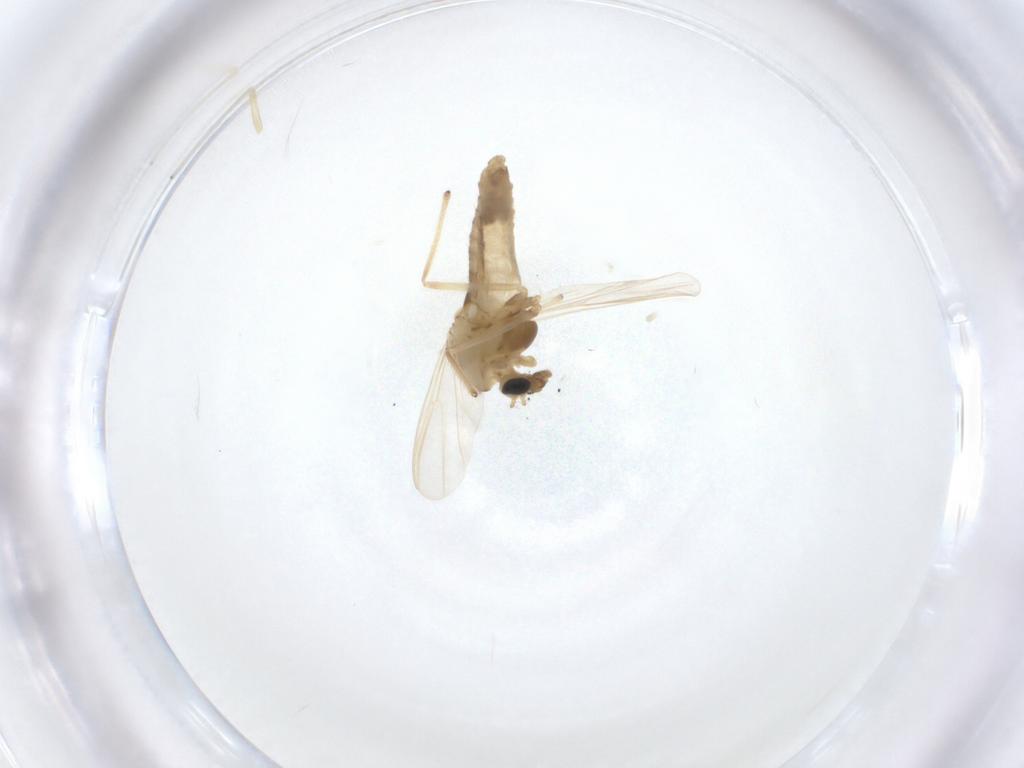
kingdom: Animalia
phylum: Arthropoda
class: Insecta
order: Diptera
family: Chironomidae
